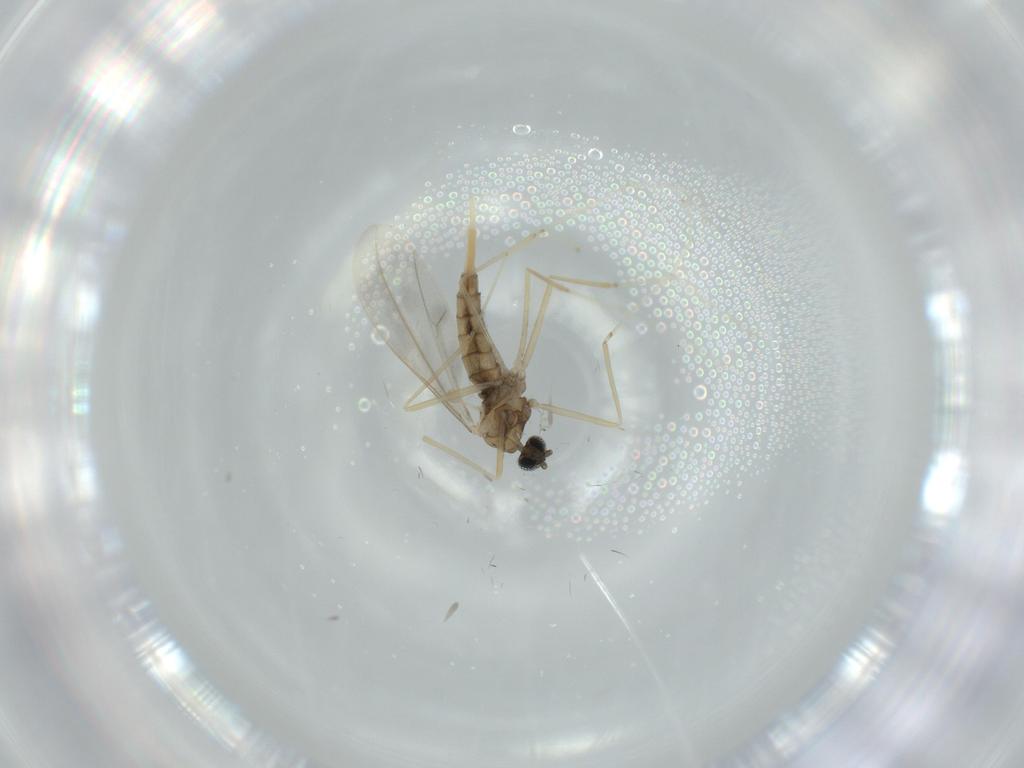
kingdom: Animalia
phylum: Arthropoda
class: Insecta
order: Diptera
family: Cecidomyiidae
